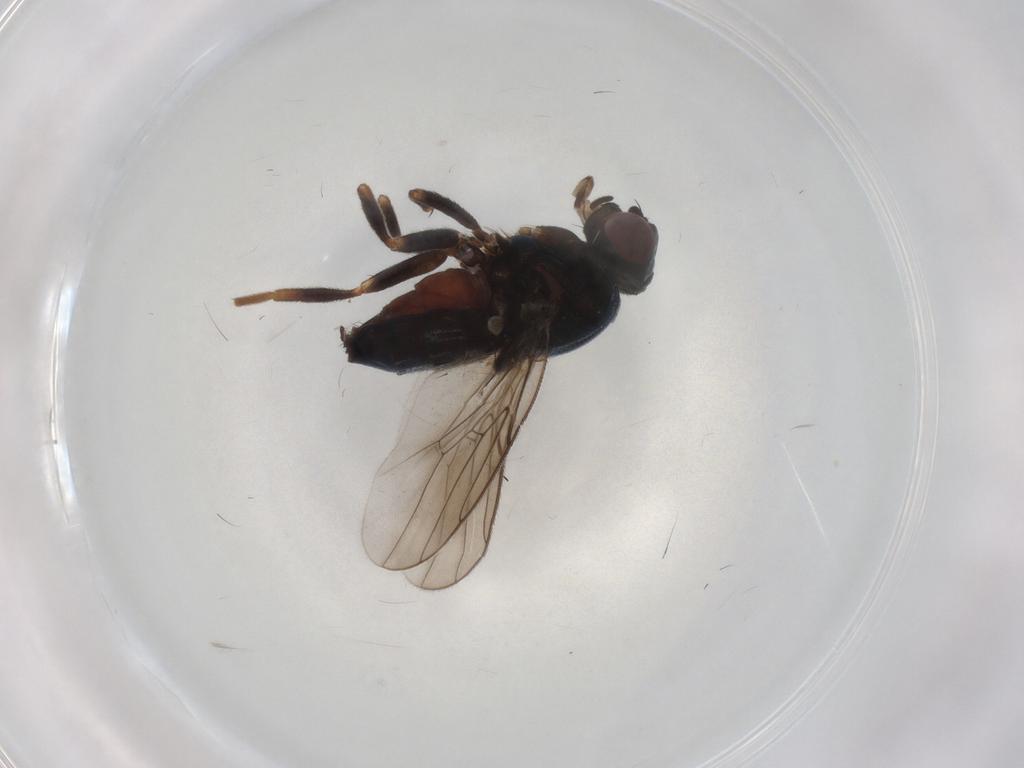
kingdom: Animalia
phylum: Arthropoda
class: Insecta
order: Diptera
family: Chloropidae
